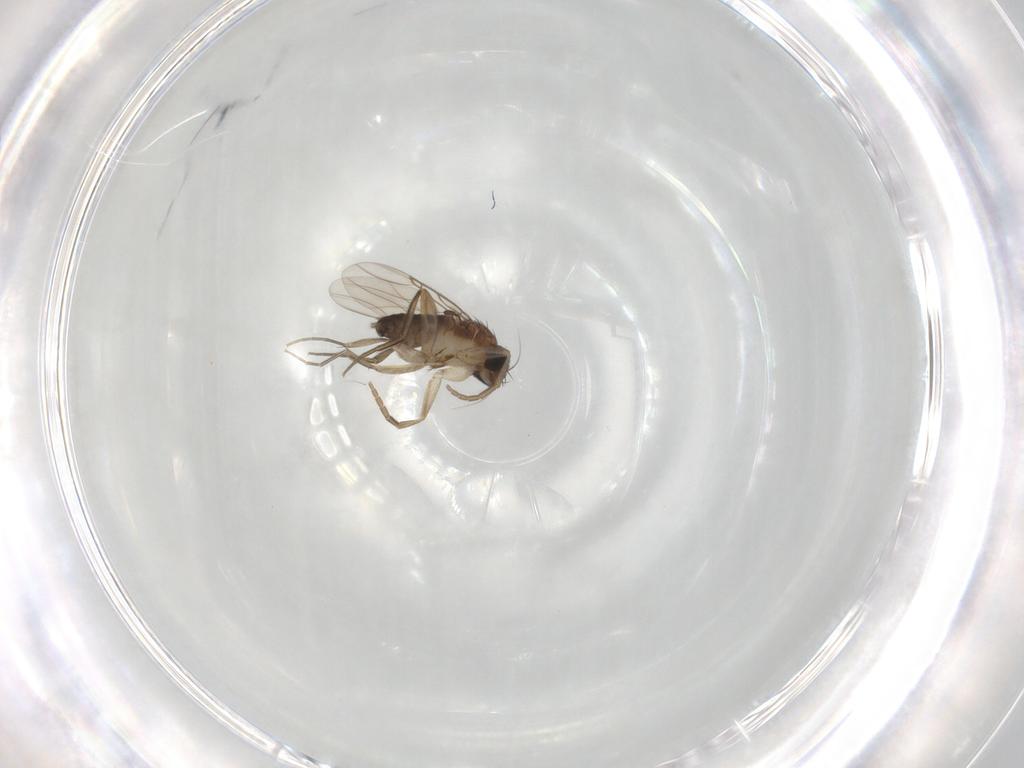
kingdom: Animalia
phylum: Arthropoda
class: Insecta
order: Diptera
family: Phoridae
